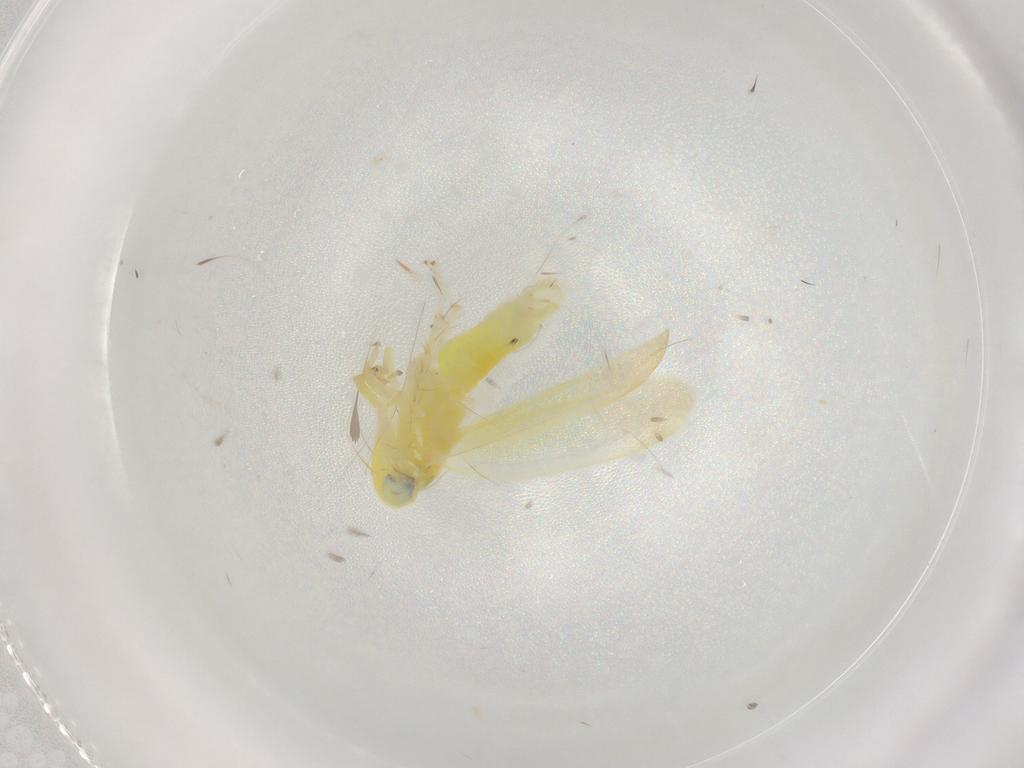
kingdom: Animalia
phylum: Arthropoda
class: Insecta
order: Hemiptera
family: Cicadellidae
